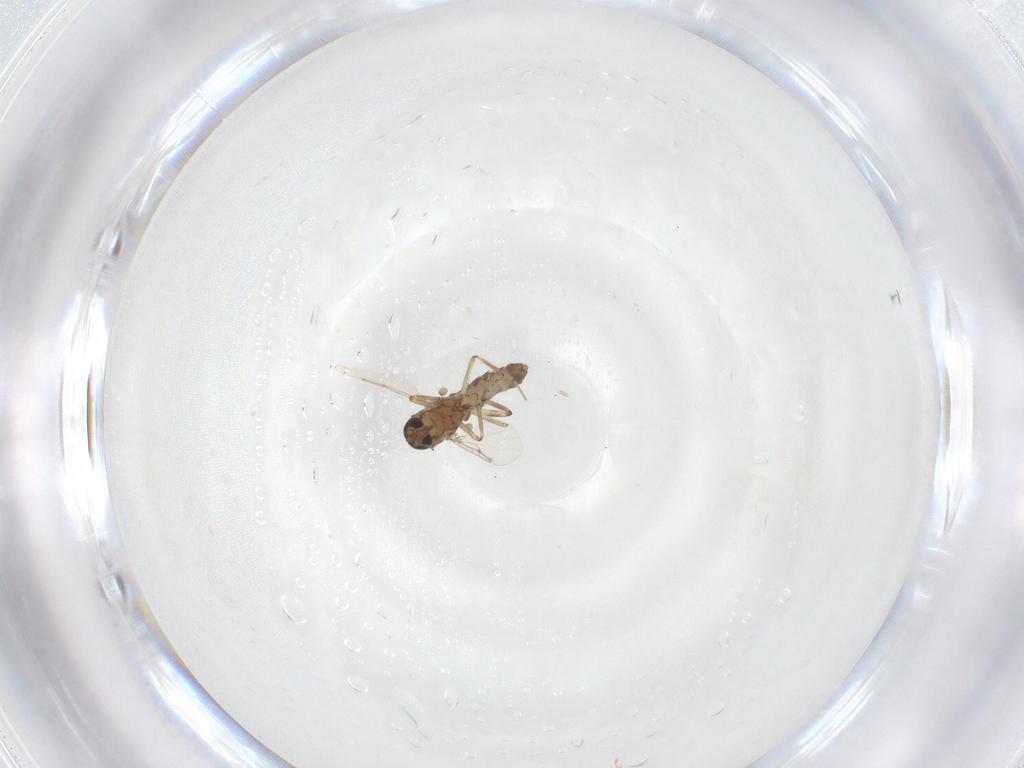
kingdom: Animalia
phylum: Arthropoda
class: Insecta
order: Diptera
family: Ceratopogonidae
